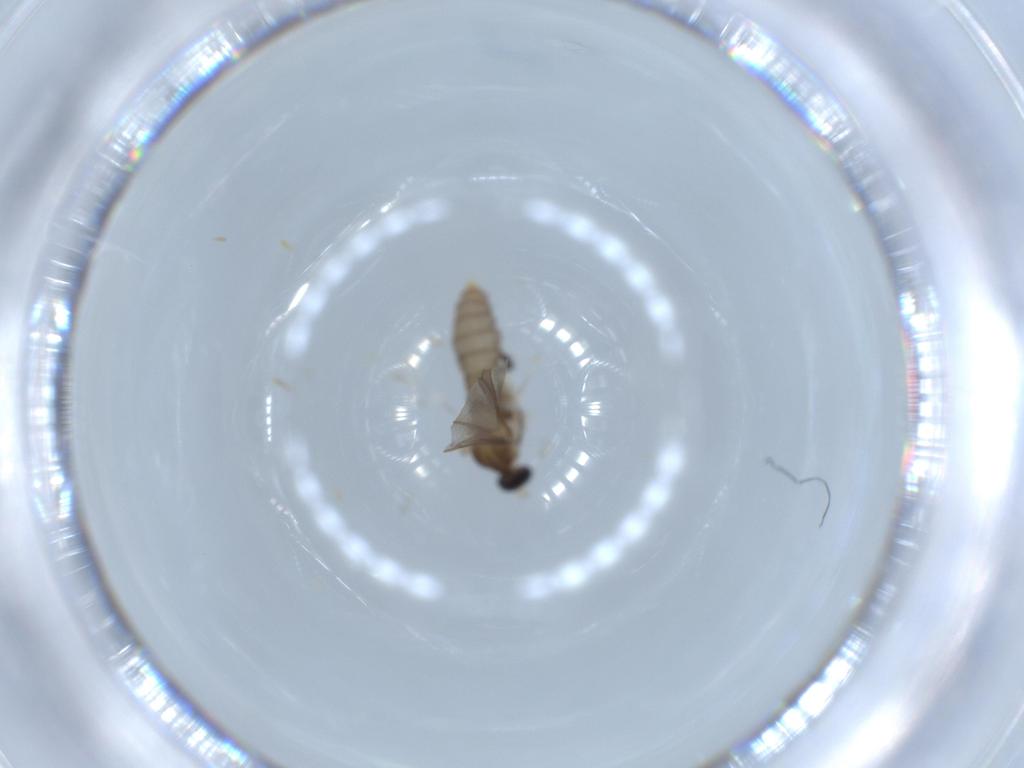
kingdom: Animalia
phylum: Arthropoda
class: Insecta
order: Diptera
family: Cecidomyiidae
